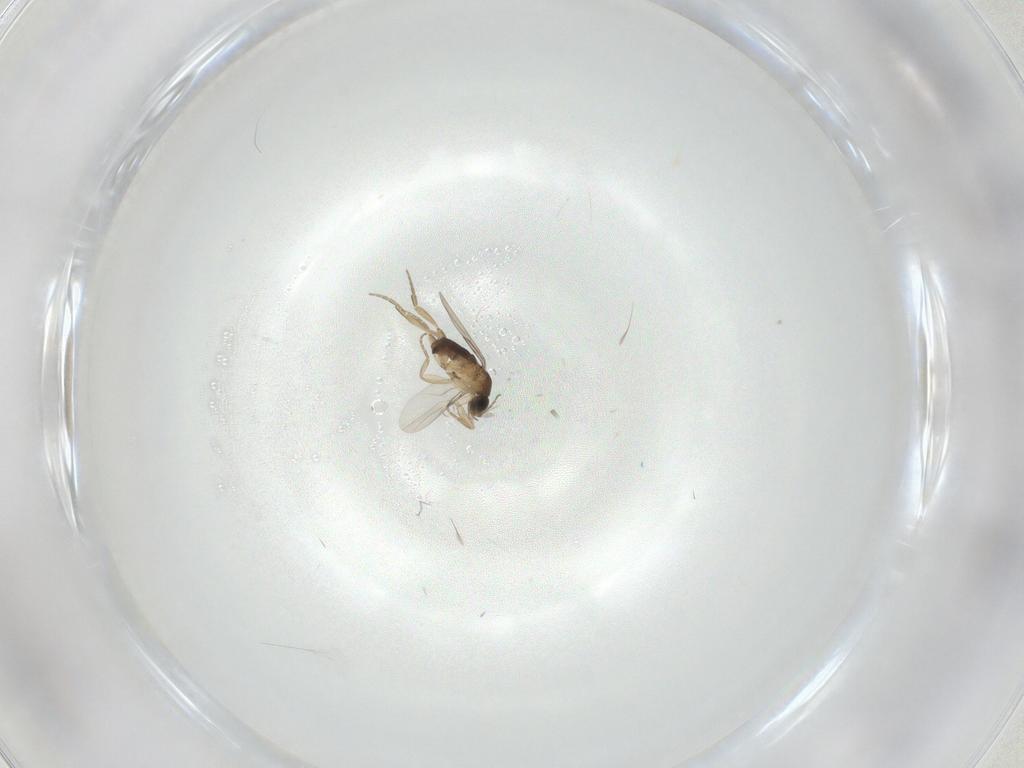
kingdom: Animalia
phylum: Arthropoda
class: Insecta
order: Diptera
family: Phoridae
